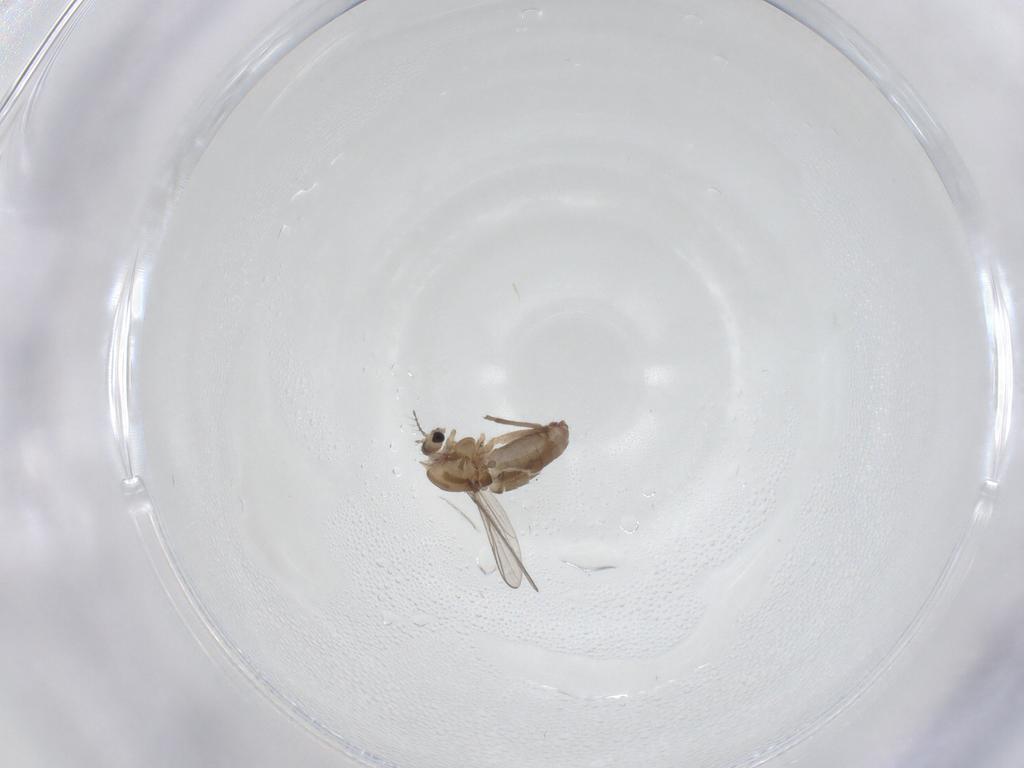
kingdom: Animalia
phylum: Arthropoda
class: Insecta
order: Diptera
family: Chironomidae
